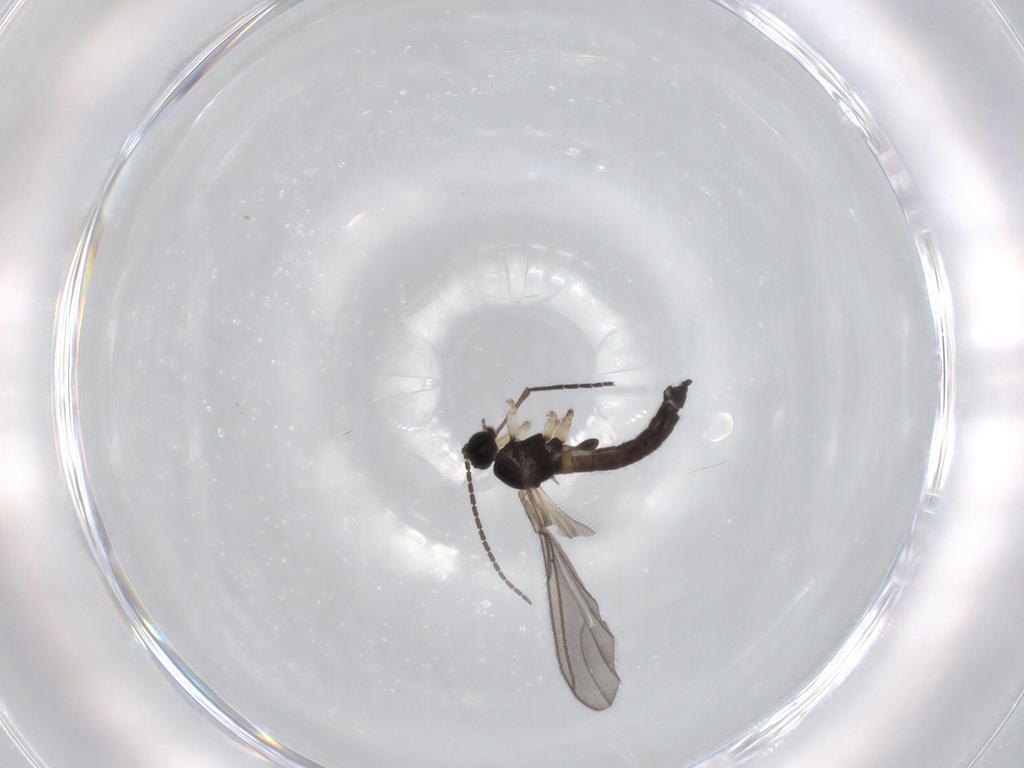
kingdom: Animalia
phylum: Arthropoda
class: Insecta
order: Diptera
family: Sciaridae
